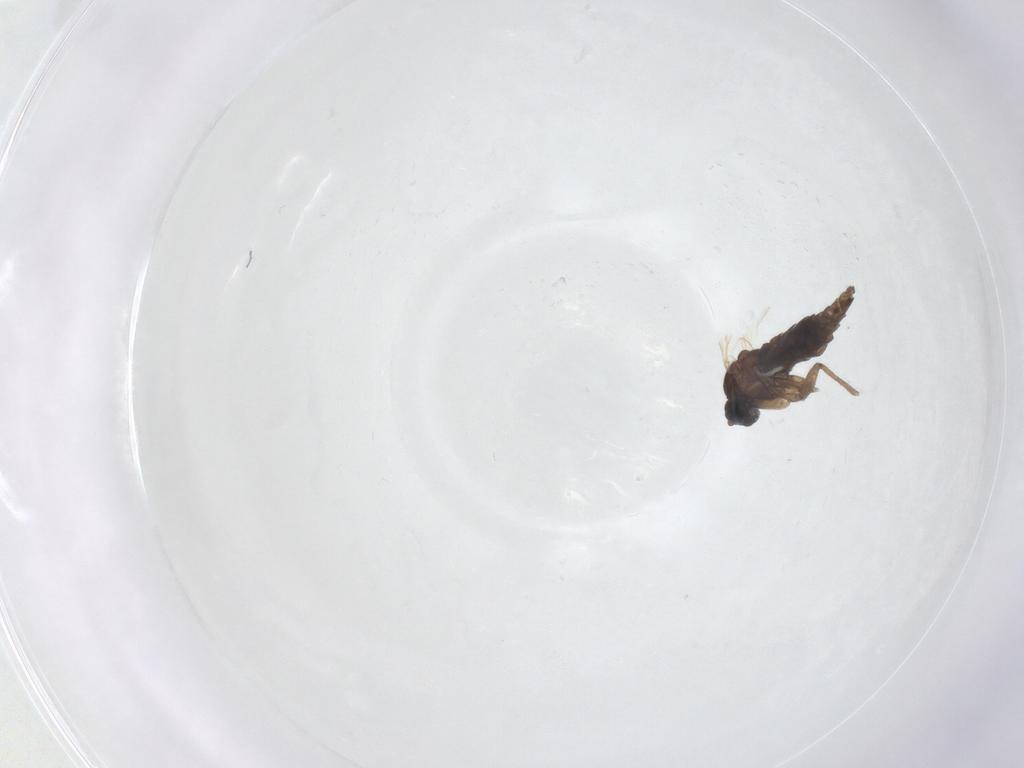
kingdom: Animalia
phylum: Arthropoda
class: Insecta
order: Diptera
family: Sciaridae
